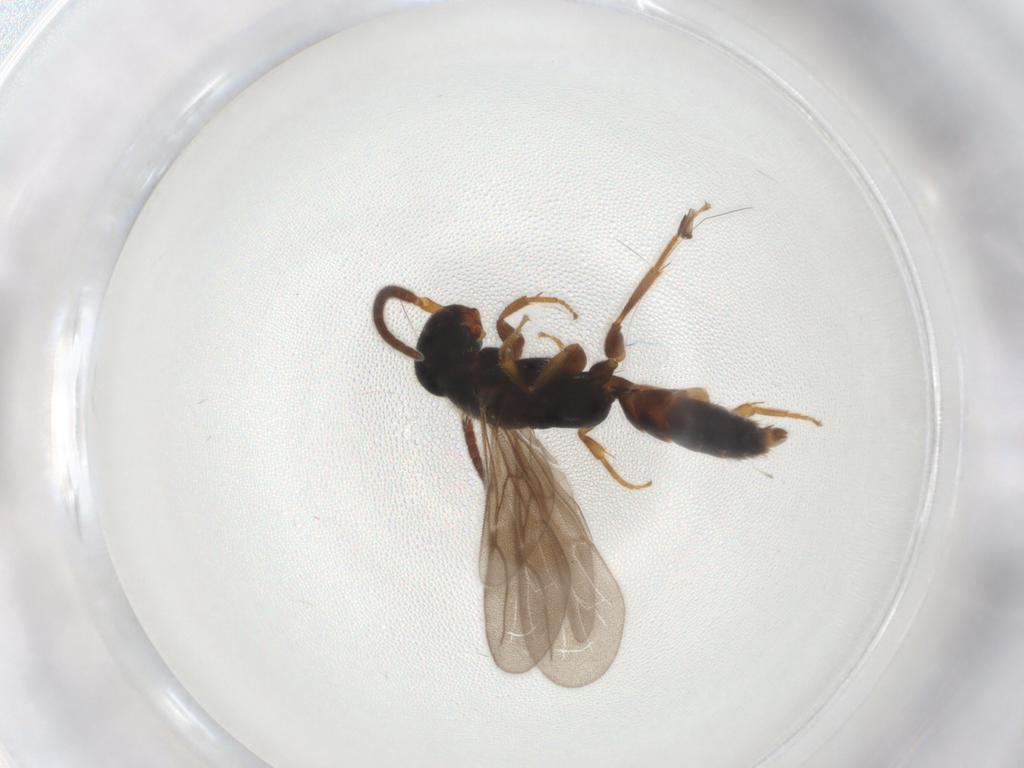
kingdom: Animalia
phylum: Arthropoda
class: Insecta
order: Hymenoptera
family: Bethylidae
